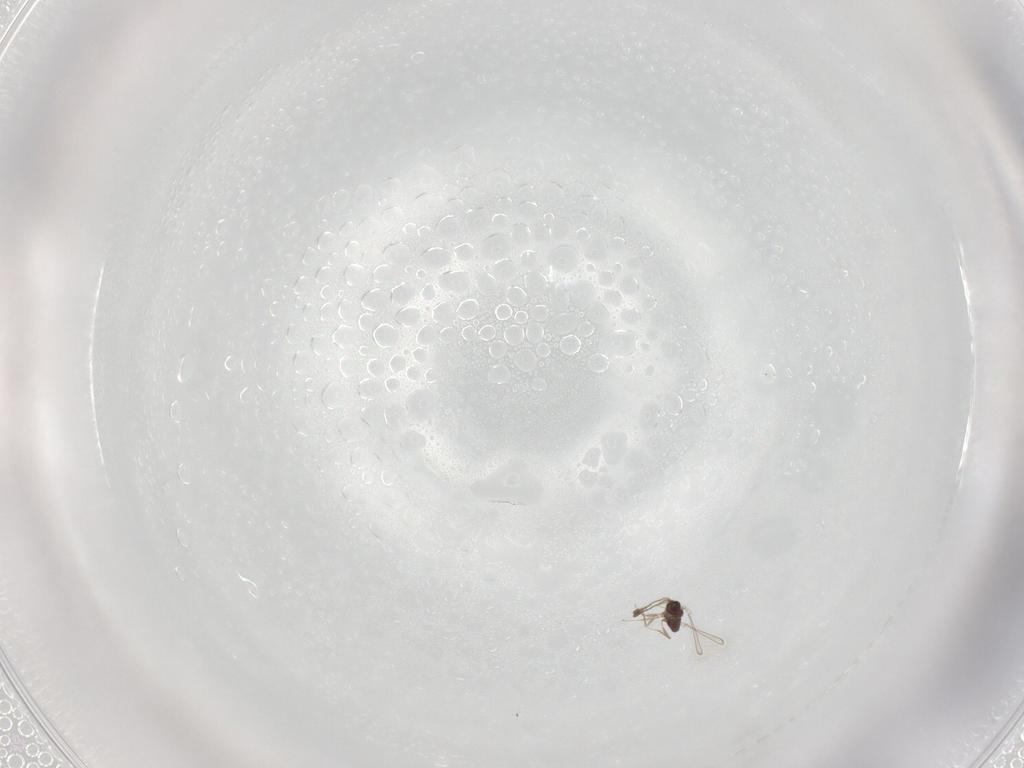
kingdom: Animalia
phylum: Arthropoda
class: Insecta
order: Hymenoptera
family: Mymaridae
